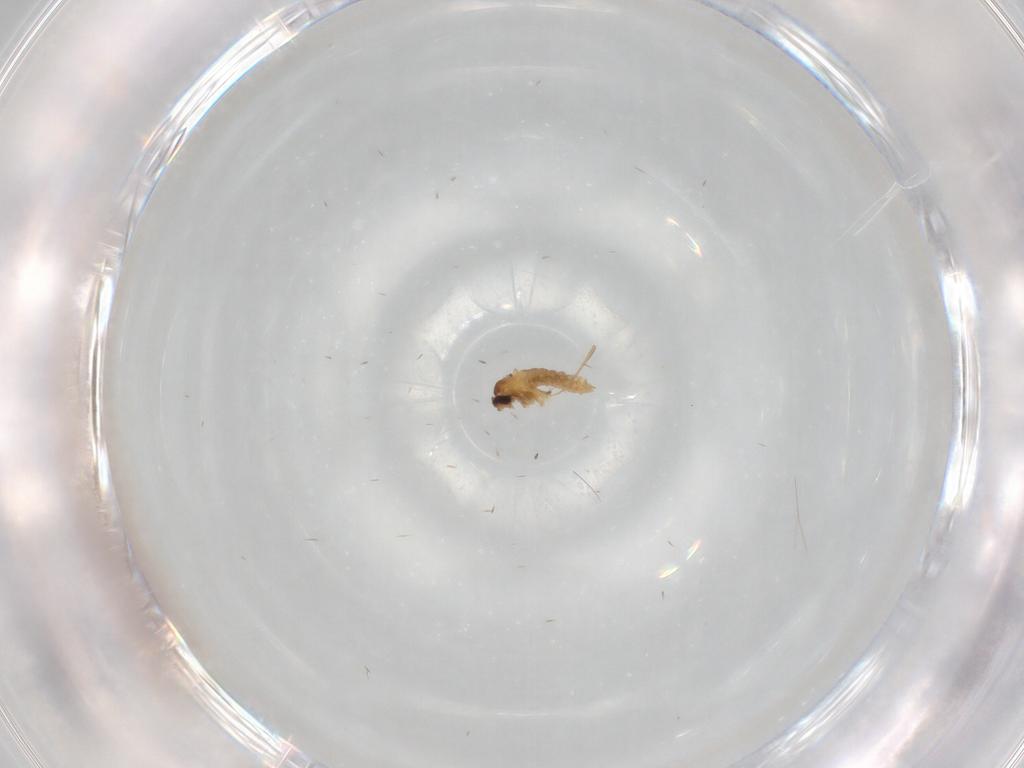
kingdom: Animalia
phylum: Arthropoda
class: Insecta
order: Diptera
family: Cecidomyiidae
